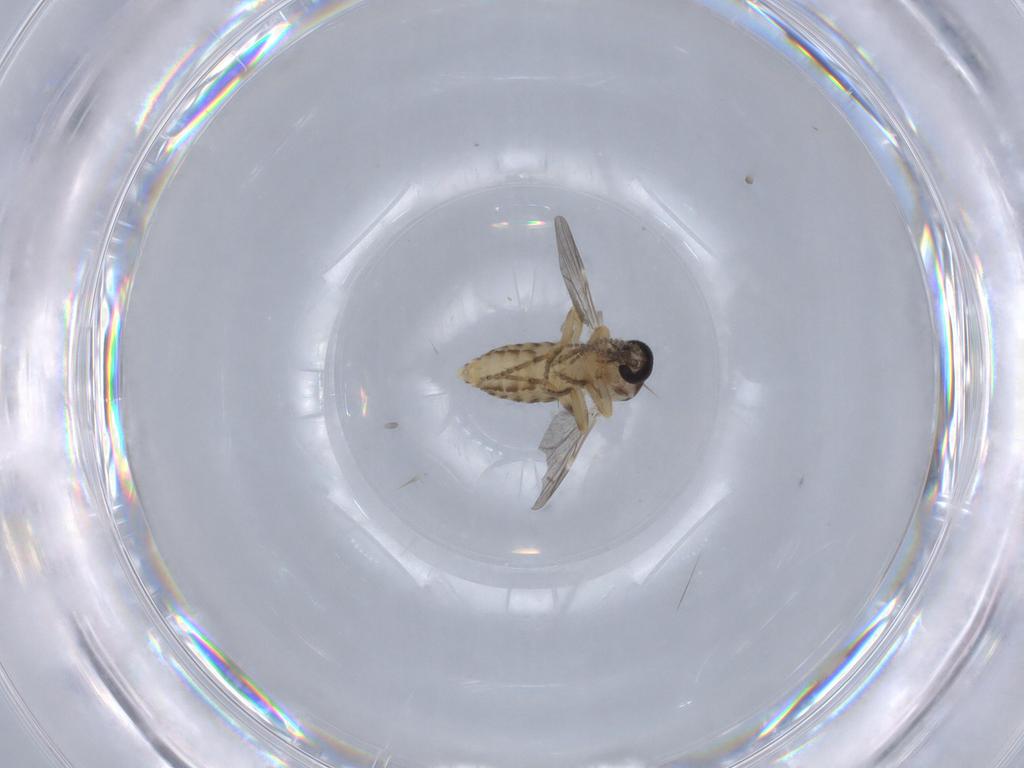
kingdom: Animalia
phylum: Arthropoda
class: Insecta
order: Diptera
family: Ceratopogonidae
